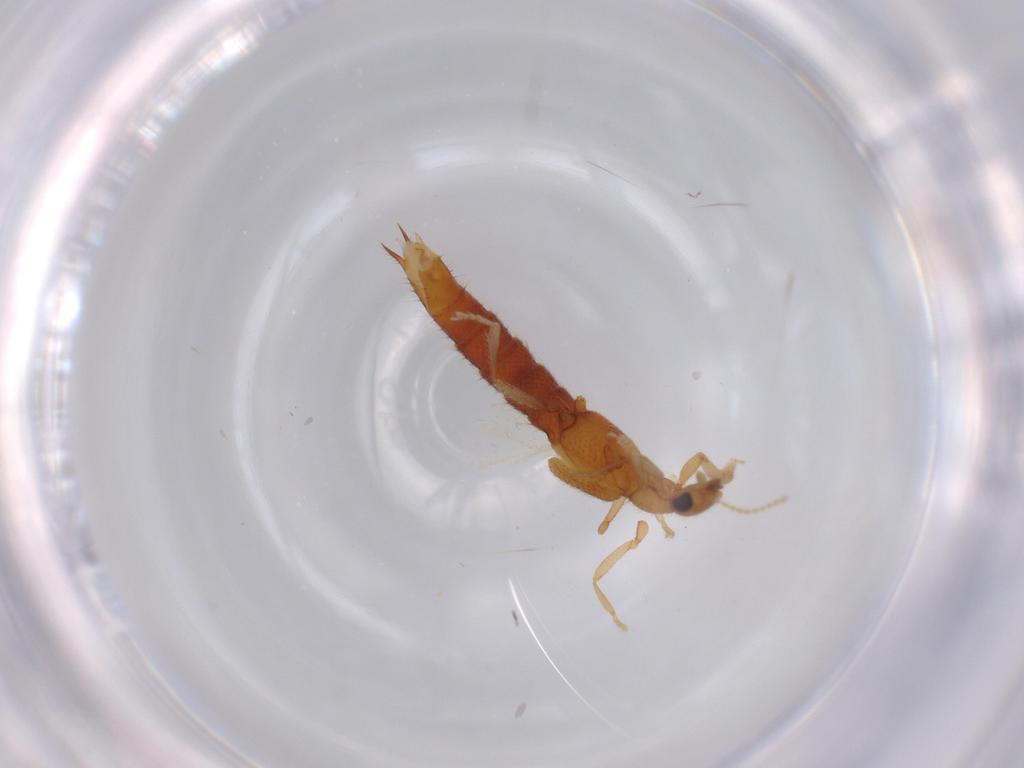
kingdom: Animalia
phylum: Arthropoda
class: Insecta
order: Coleoptera
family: Staphylinidae
